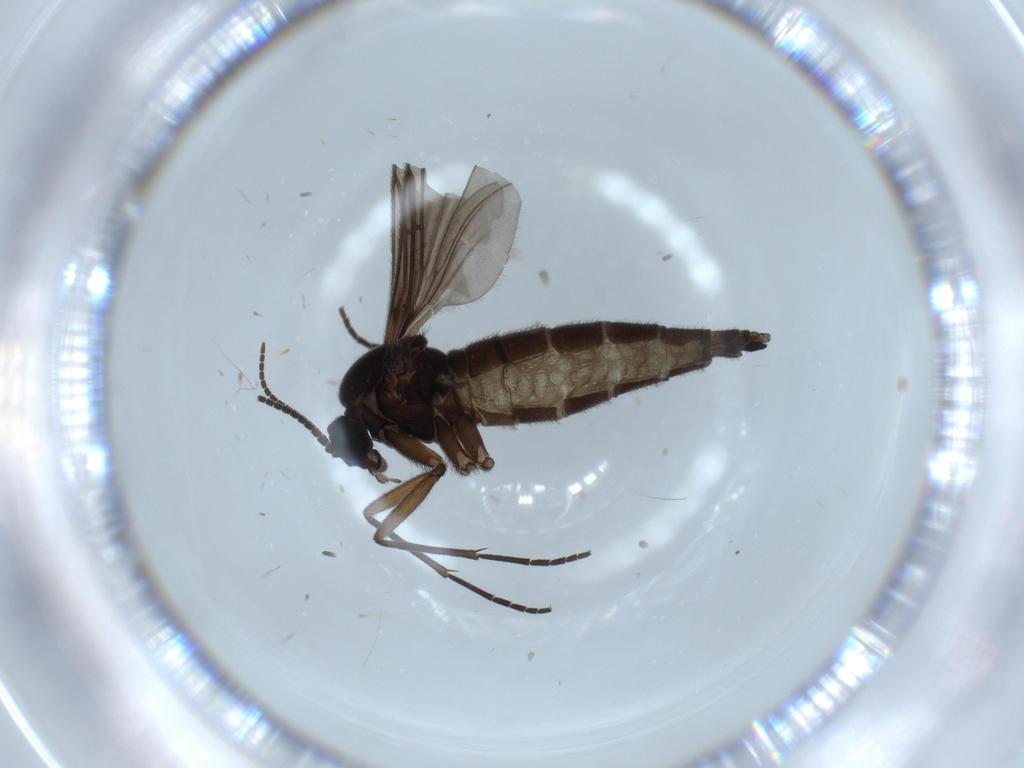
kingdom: Animalia
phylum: Arthropoda
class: Insecta
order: Diptera
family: Sciaridae
